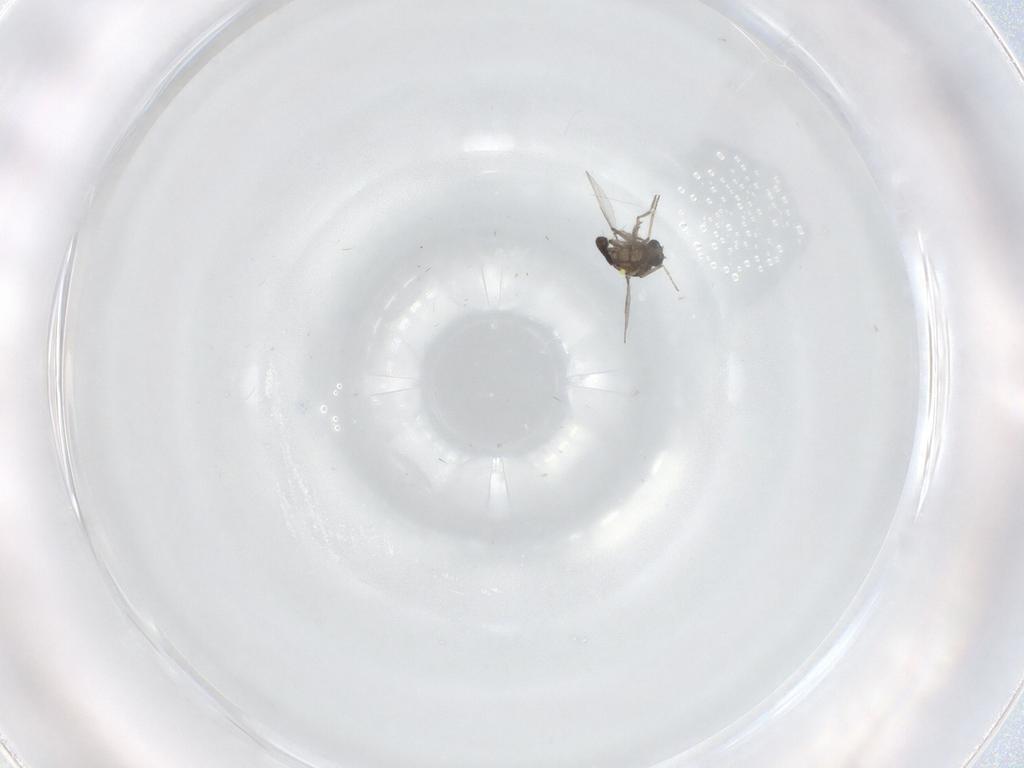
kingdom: Animalia
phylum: Arthropoda
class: Insecta
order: Diptera
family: Ceratopogonidae
